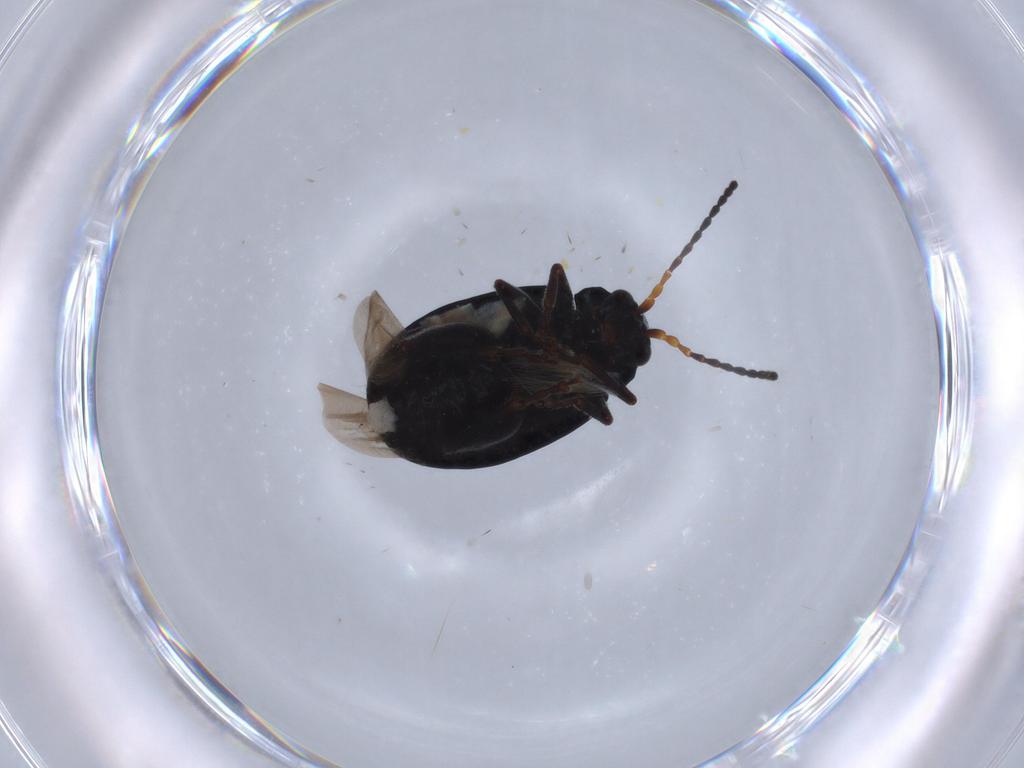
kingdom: Animalia
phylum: Arthropoda
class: Insecta
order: Coleoptera
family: Chrysomelidae
